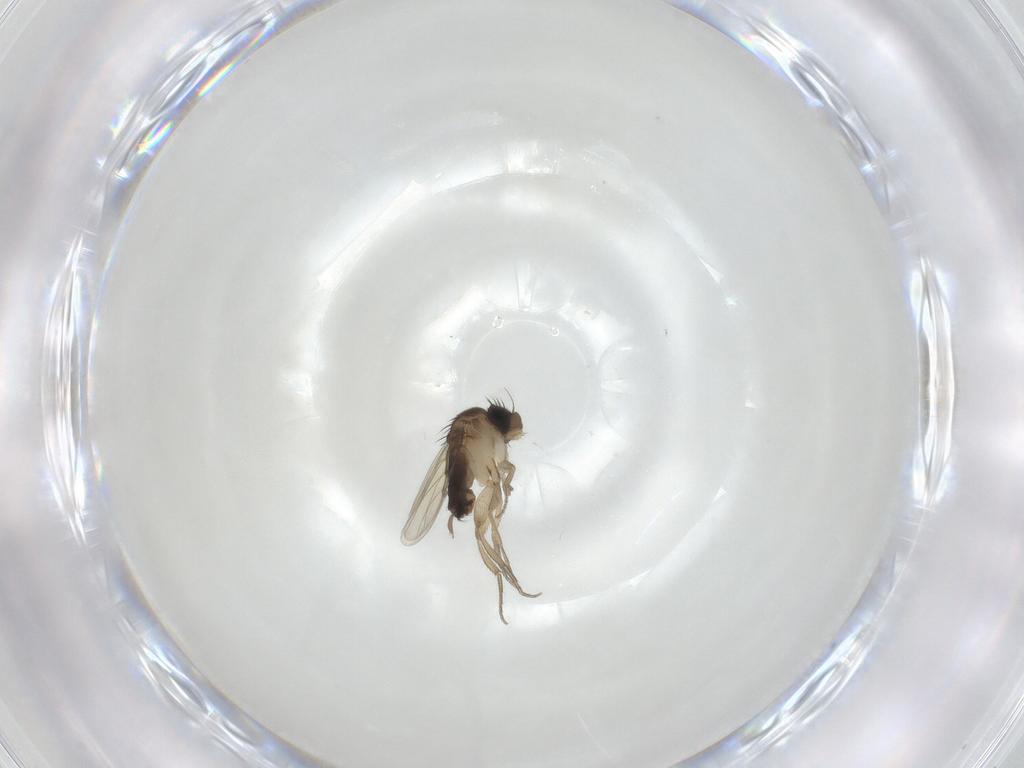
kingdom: Animalia
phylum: Arthropoda
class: Insecta
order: Diptera
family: Phoridae
